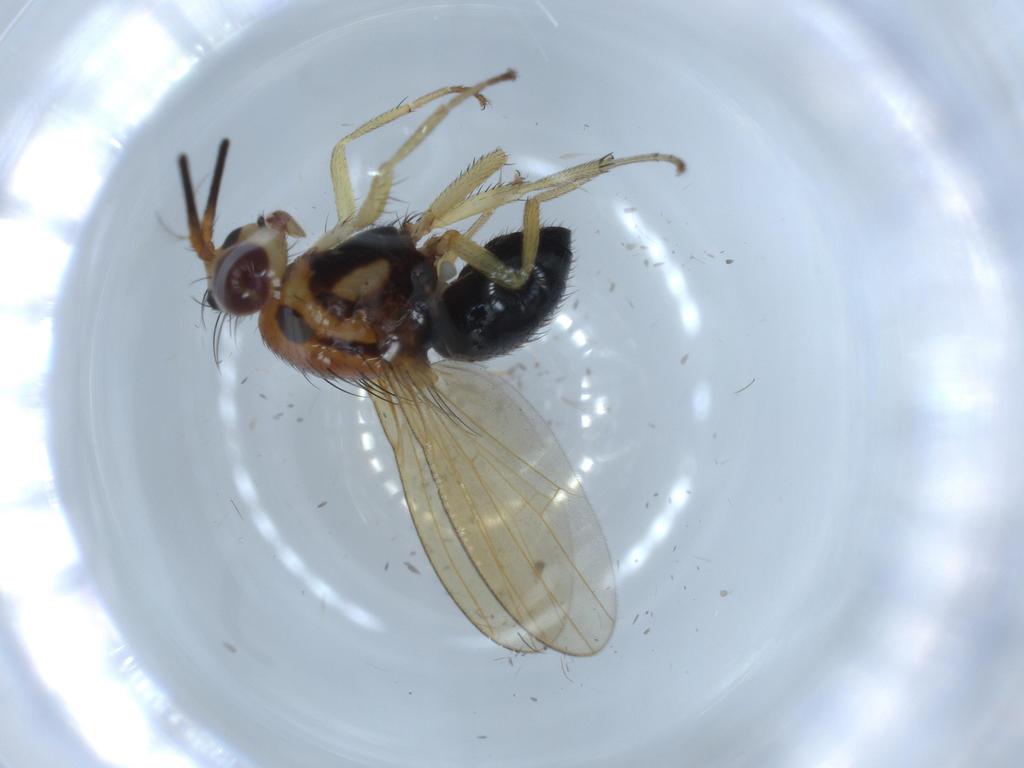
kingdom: Animalia
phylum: Arthropoda
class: Insecta
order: Diptera
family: Lauxaniidae
